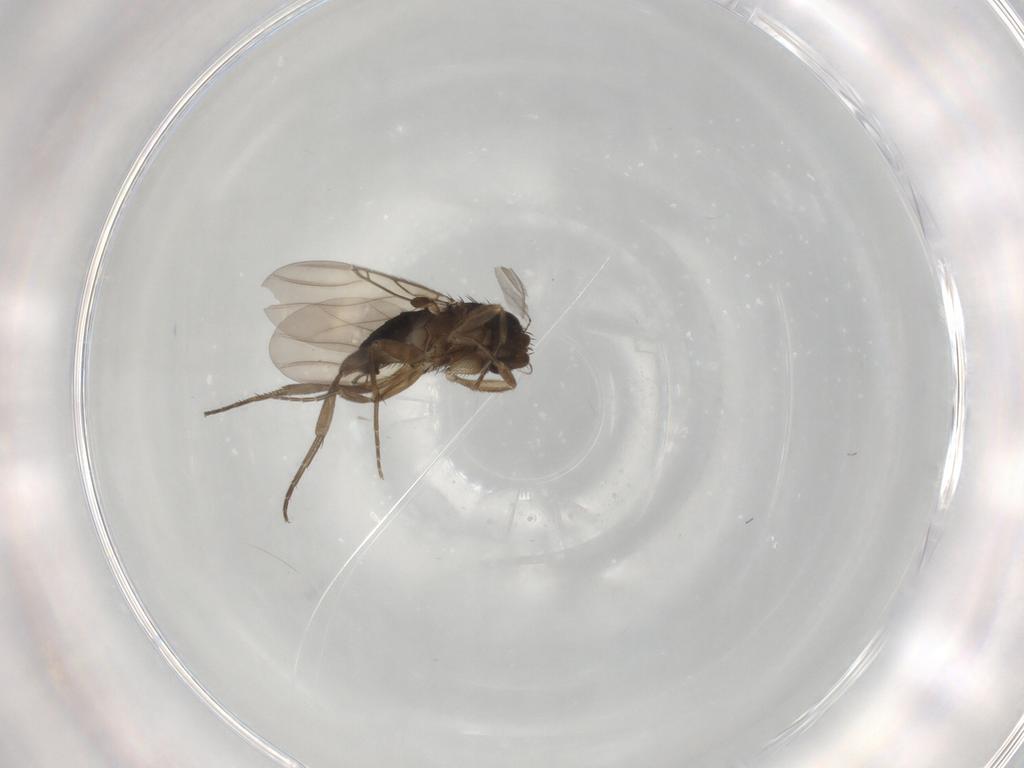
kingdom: Animalia
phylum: Arthropoda
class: Insecta
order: Diptera
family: Phoridae
